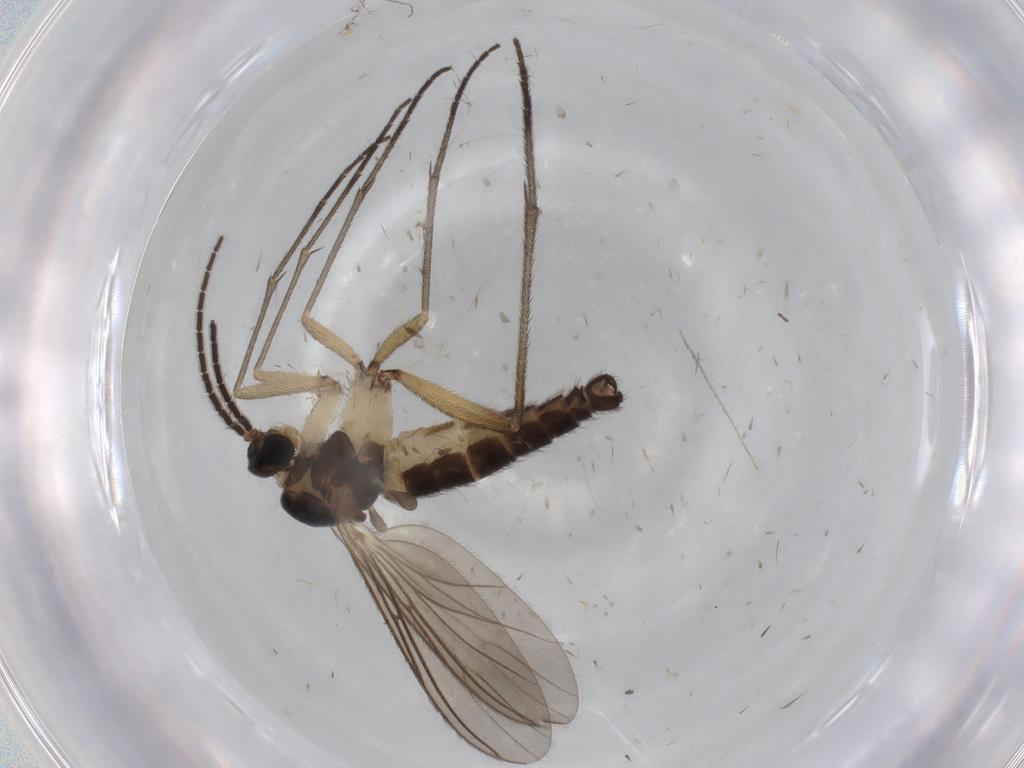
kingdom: Animalia
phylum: Arthropoda
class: Insecta
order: Diptera
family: Sciaridae
